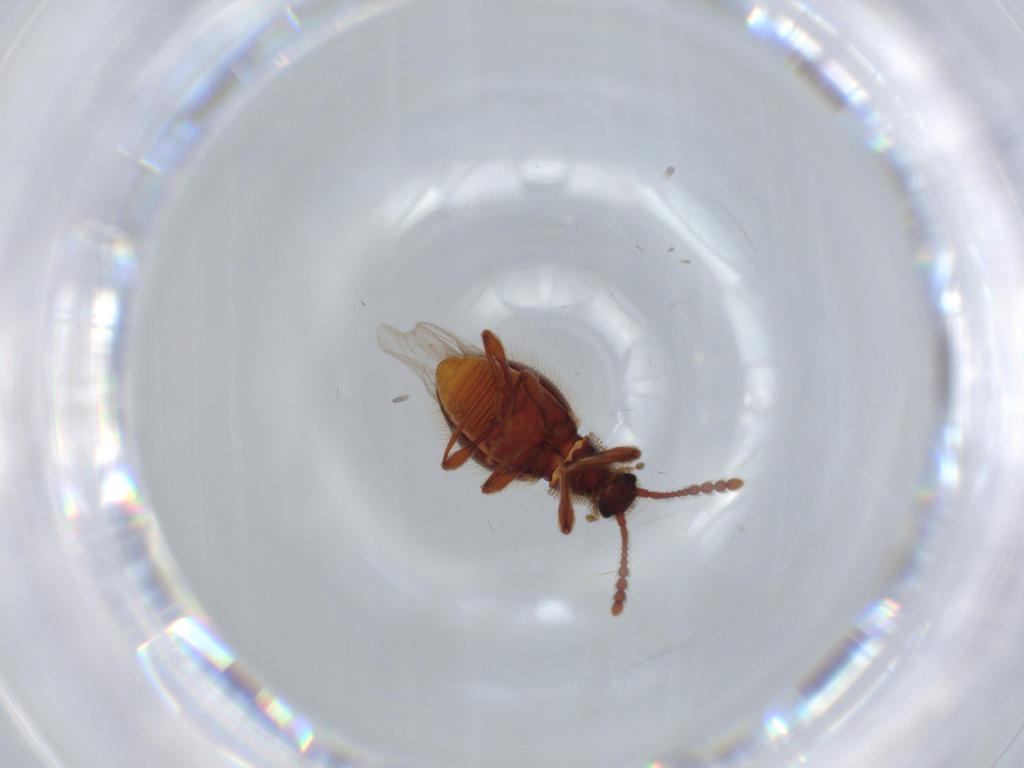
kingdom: Animalia
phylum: Arthropoda
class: Insecta
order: Coleoptera
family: Staphylinidae
